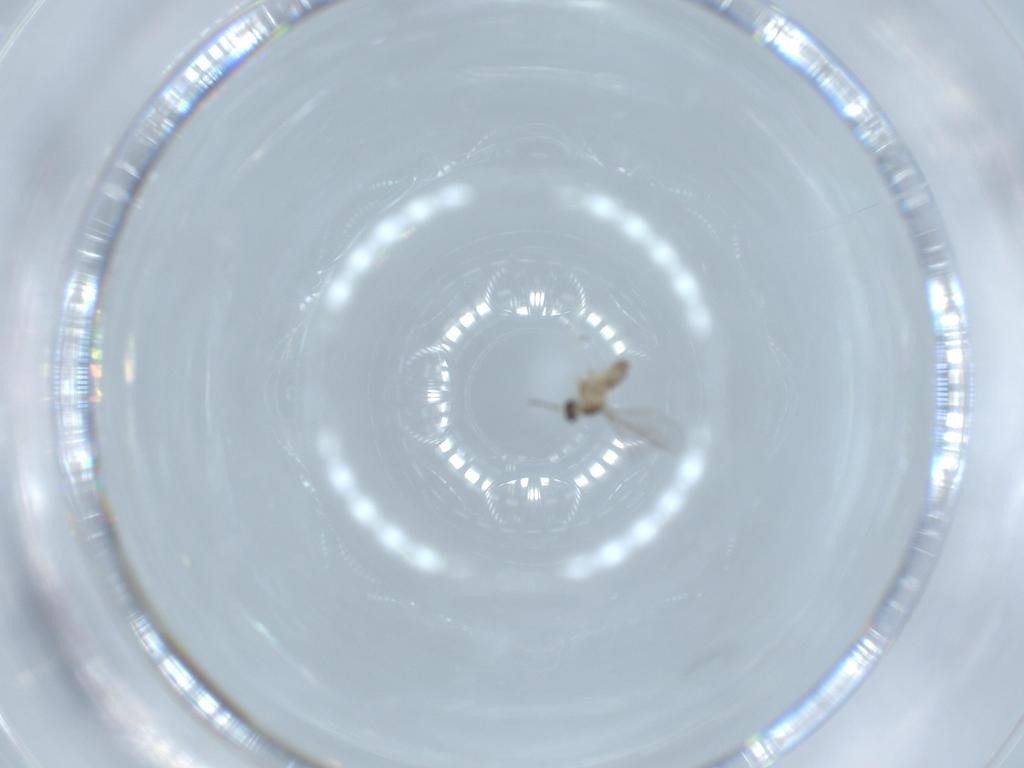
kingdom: Animalia
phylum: Arthropoda
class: Insecta
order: Diptera
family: Cecidomyiidae
